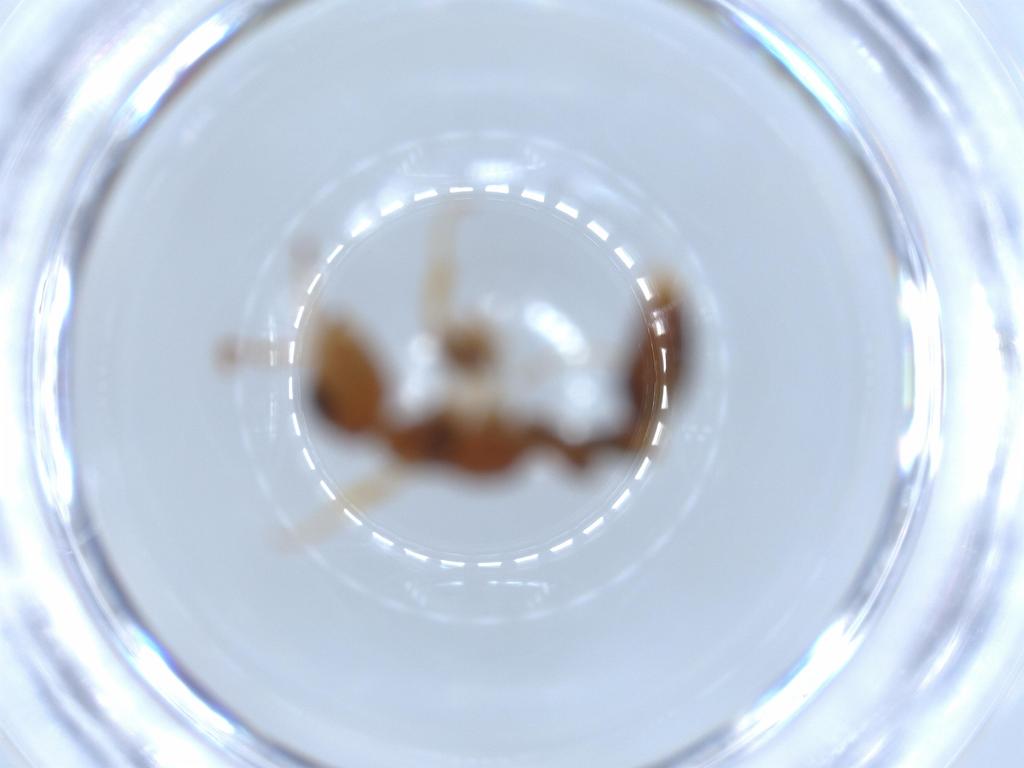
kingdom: Animalia
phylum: Arthropoda
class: Insecta
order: Hymenoptera
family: Formicidae
